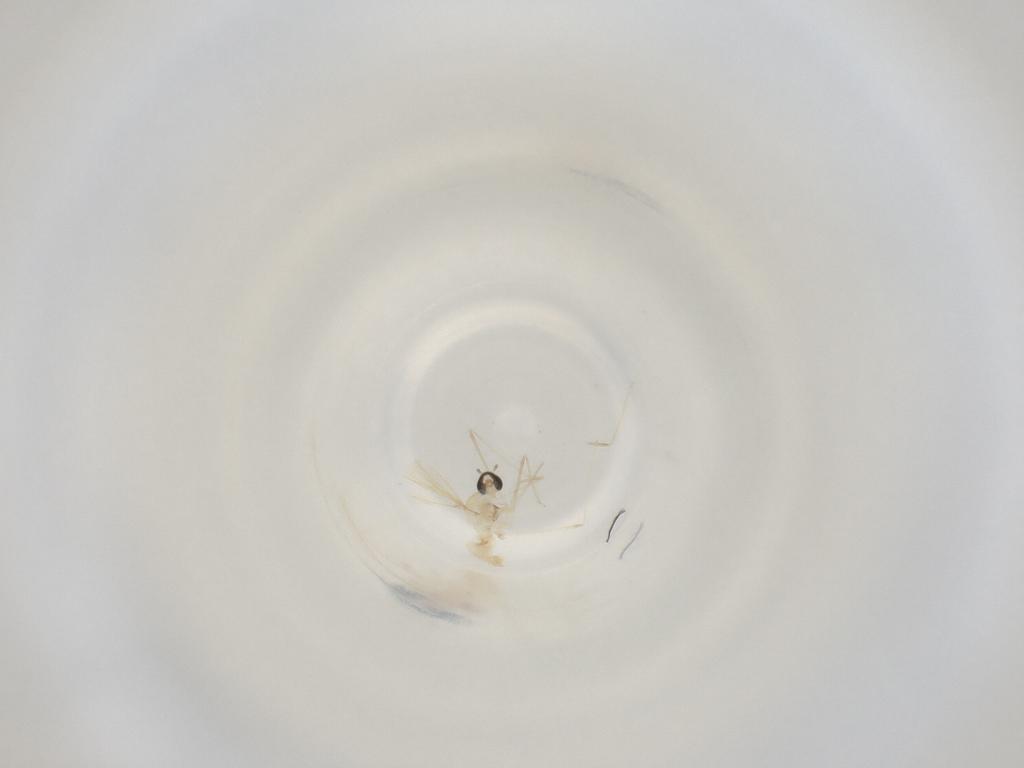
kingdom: Animalia
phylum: Arthropoda
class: Insecta
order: Diptera
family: Cecidomyiidae
